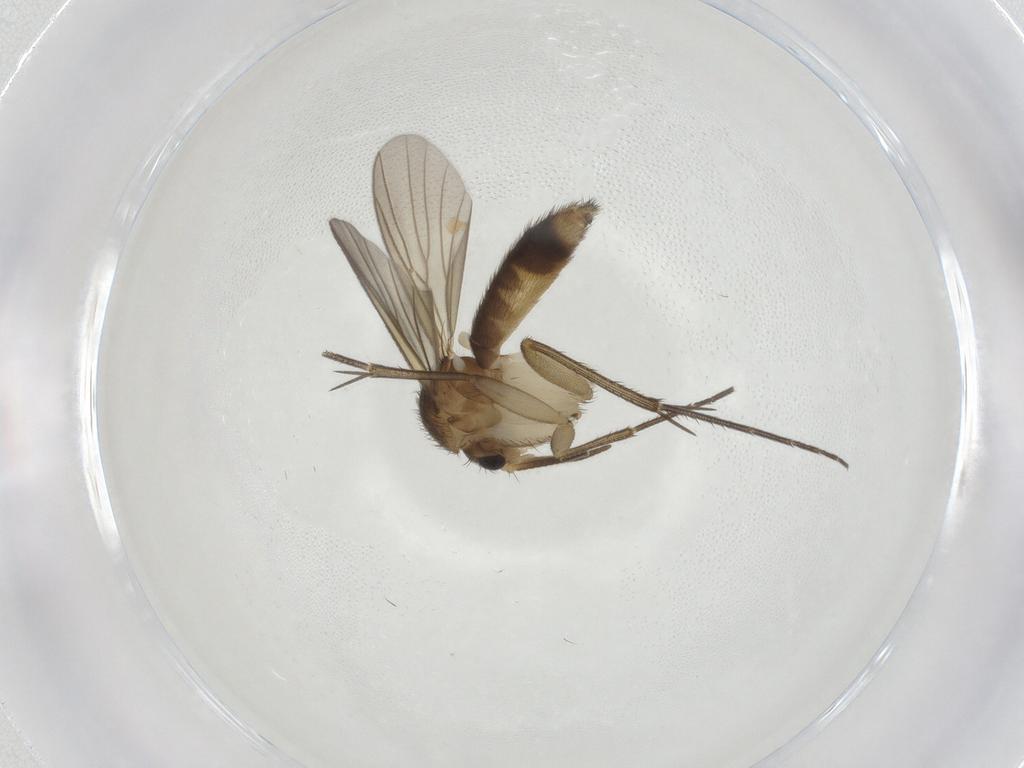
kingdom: Animalia
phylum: Arthropoda
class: Insecta
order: Diptera
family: Mycetophilidae
